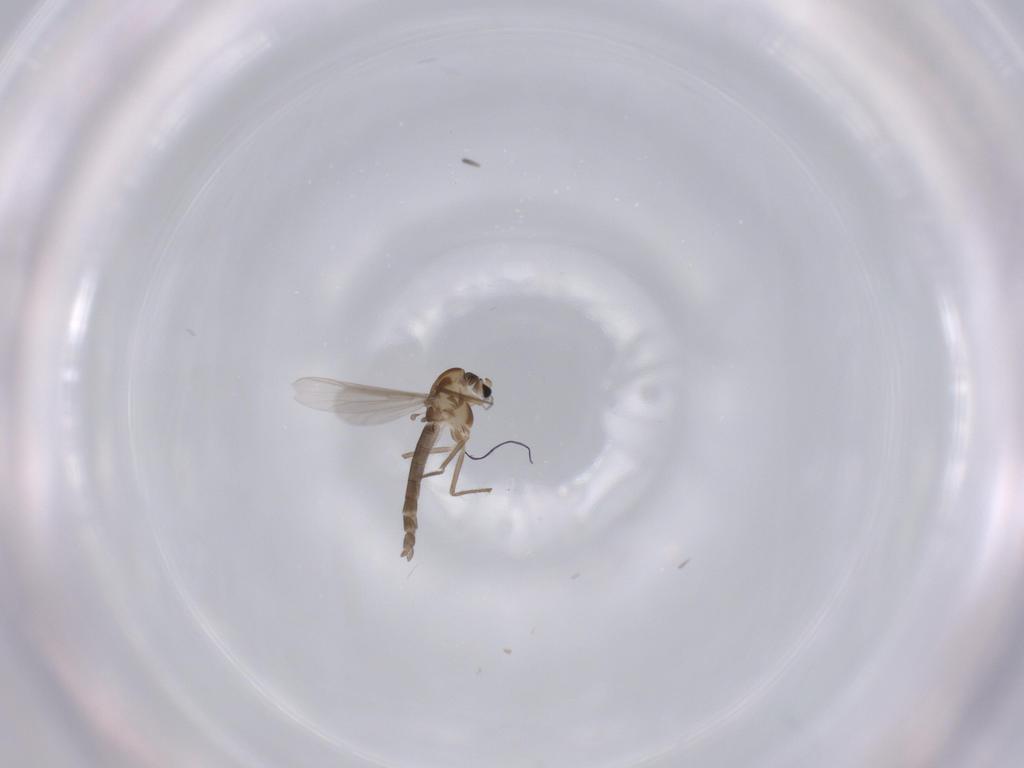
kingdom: Animalia
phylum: Arthropoda
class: Insecta
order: Diptera
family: Chironomidae
